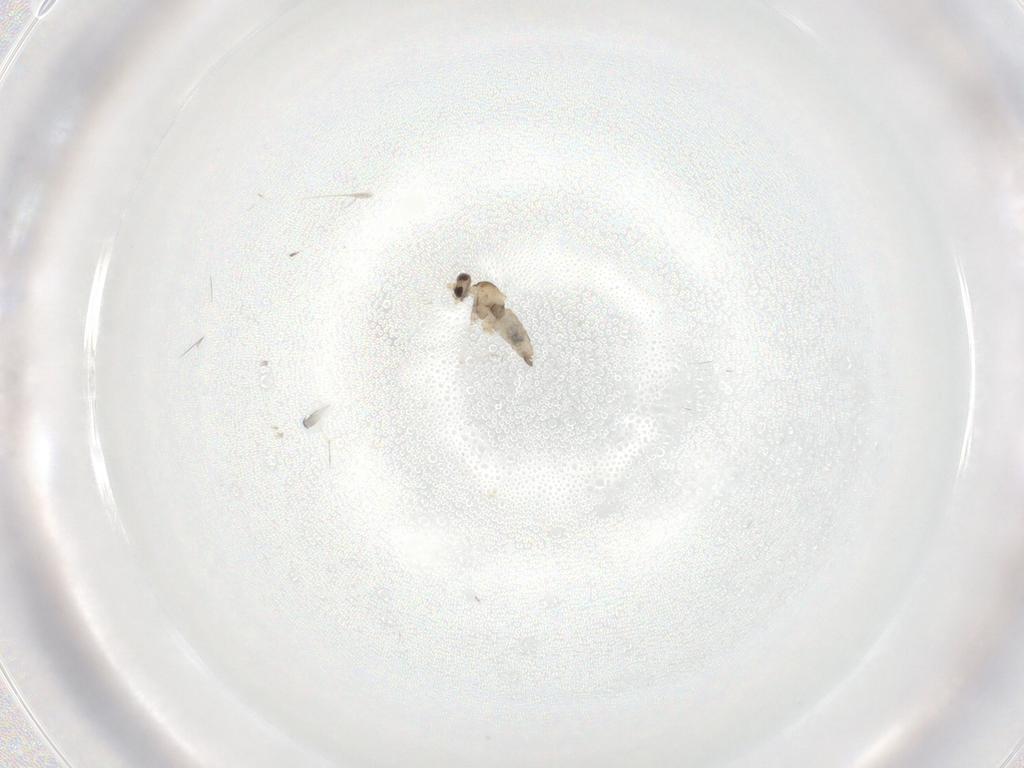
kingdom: Animalia
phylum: Arthropoda
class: Insecta
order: Diptera
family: Cecidomyiidae
